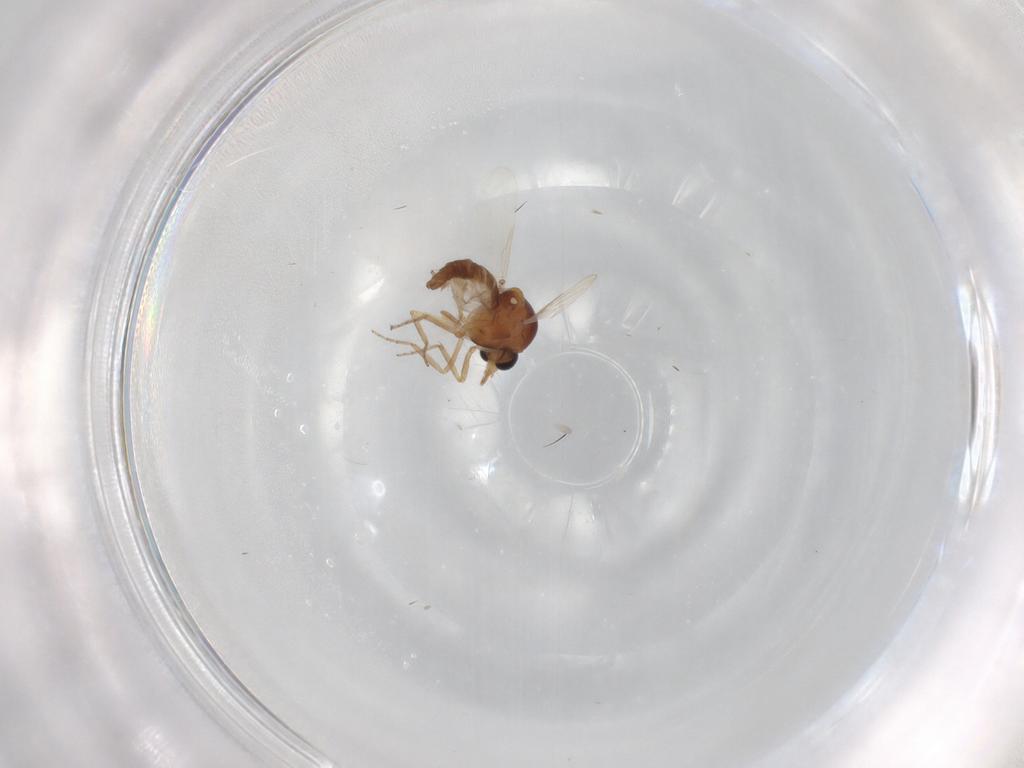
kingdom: Animalia
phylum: Arthropoda
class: Insecta
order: Diptera
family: Ceratopogonidae
